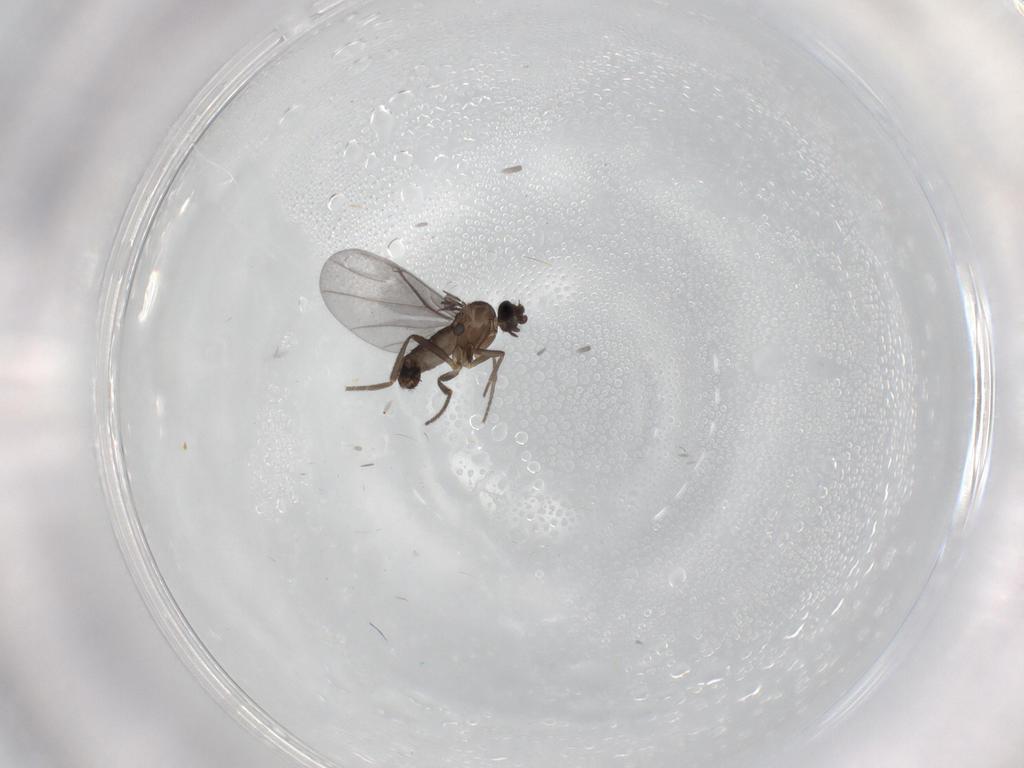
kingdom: Animalia
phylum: Arthropoda
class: Insecta
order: Diptera
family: Phoridae
